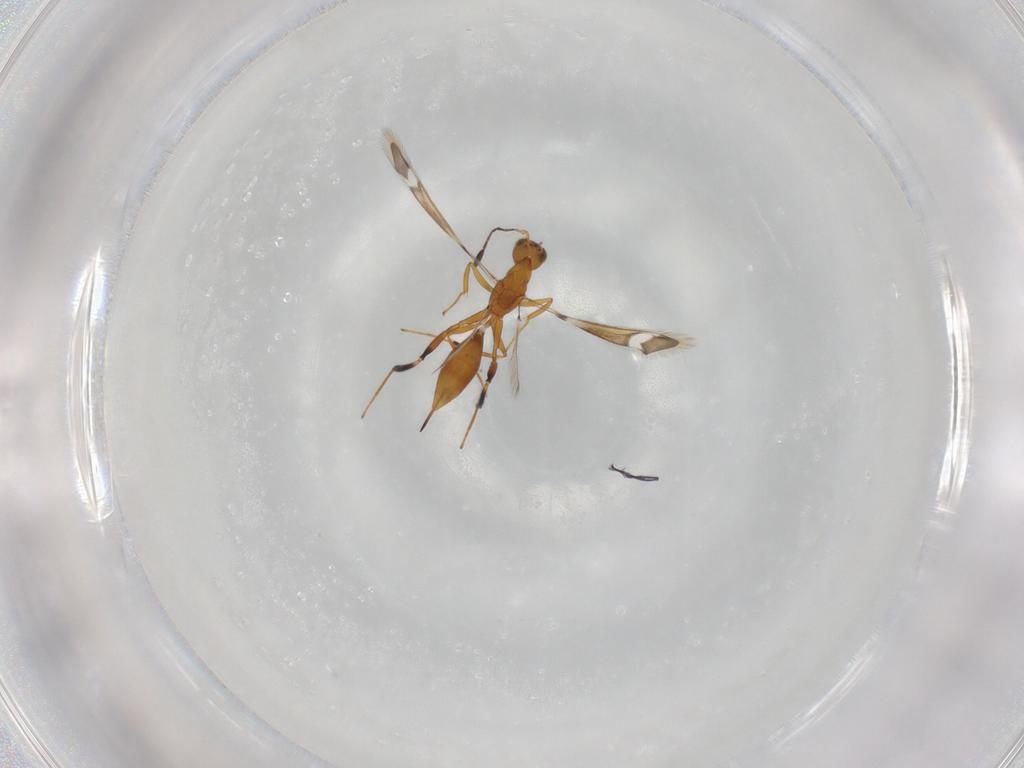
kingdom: Animalia
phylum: Arthropoda
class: Insecta
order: Hymenoptera
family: Mymaridae
